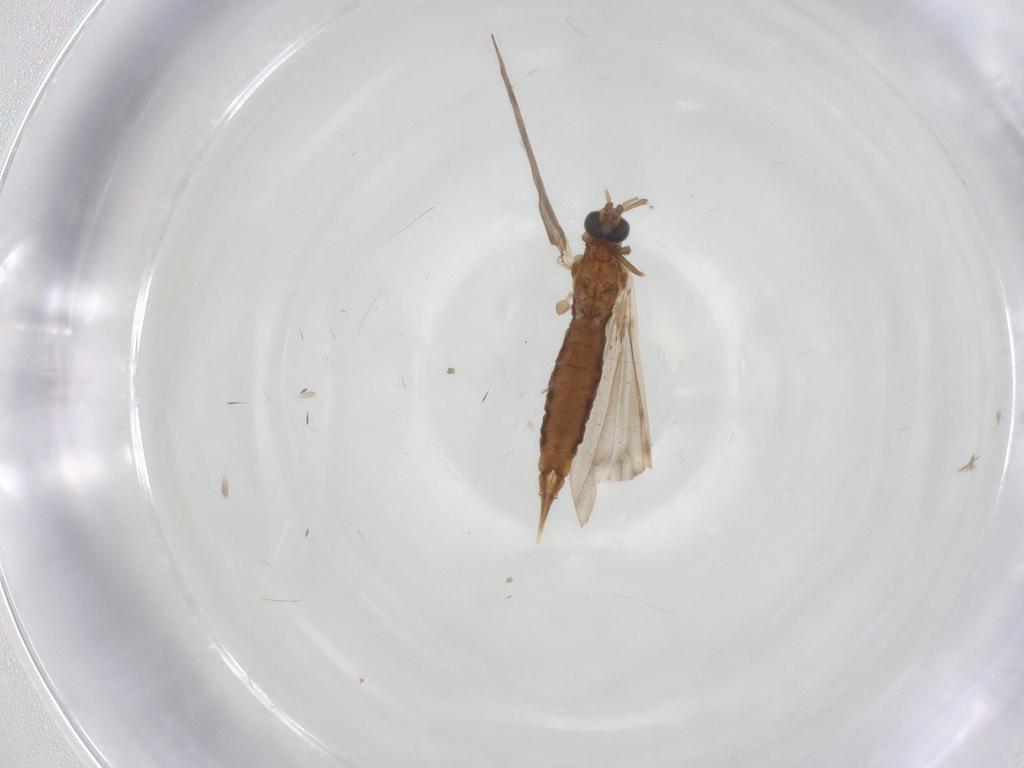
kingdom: Animalia
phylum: Arthropoda
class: Insecta
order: Diptera
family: Limoniidae
